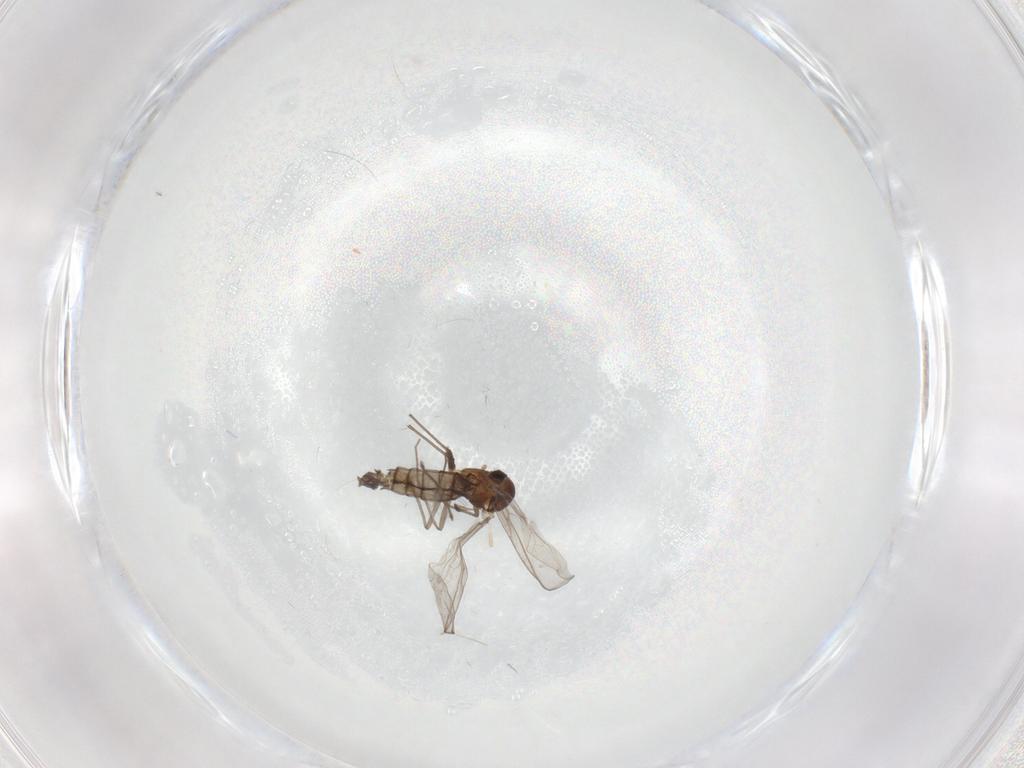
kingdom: Animalia
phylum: Arthropoda
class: Insecta
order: Diptera
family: Chironomidae
